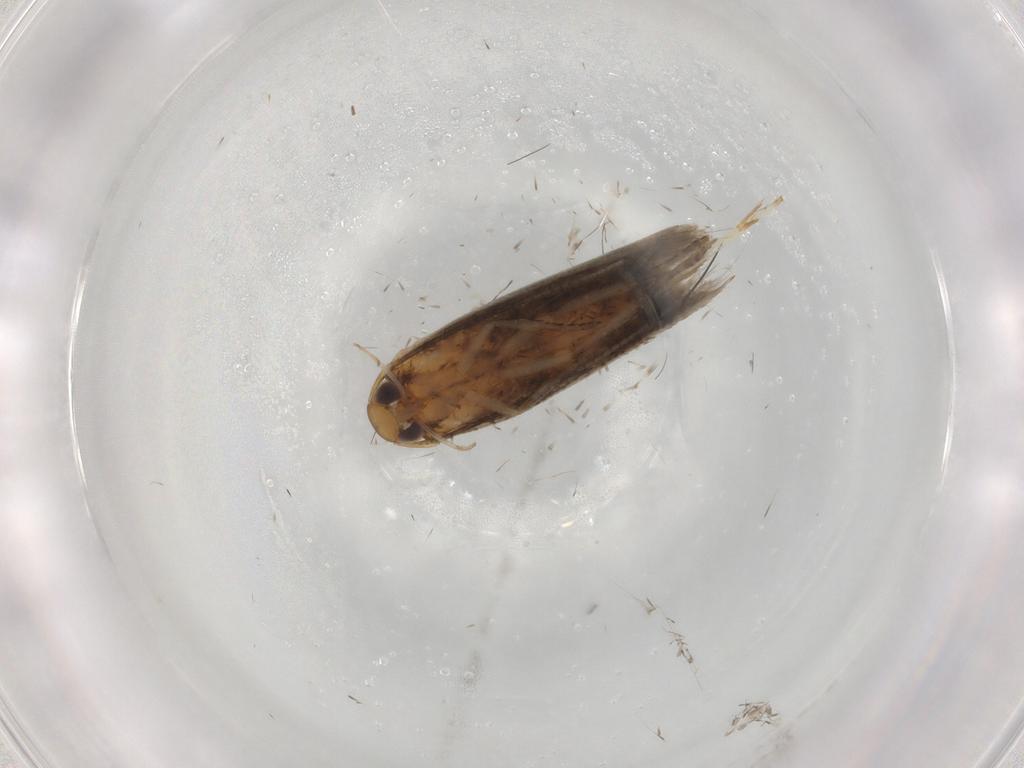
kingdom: Animalia
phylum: Arthropoda
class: Insecta
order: Lepidoptera
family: Cosmopterigidae
